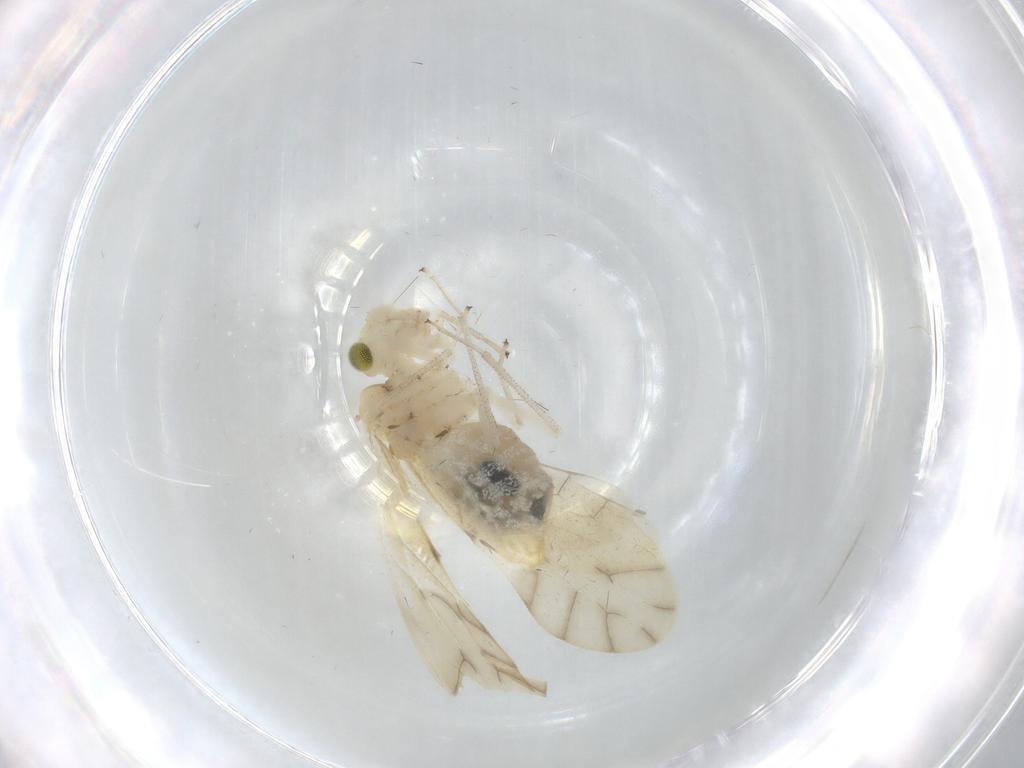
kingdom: Animalia
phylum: Arthropoda
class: Insecta
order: Psocodea
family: Caeciliusidae
